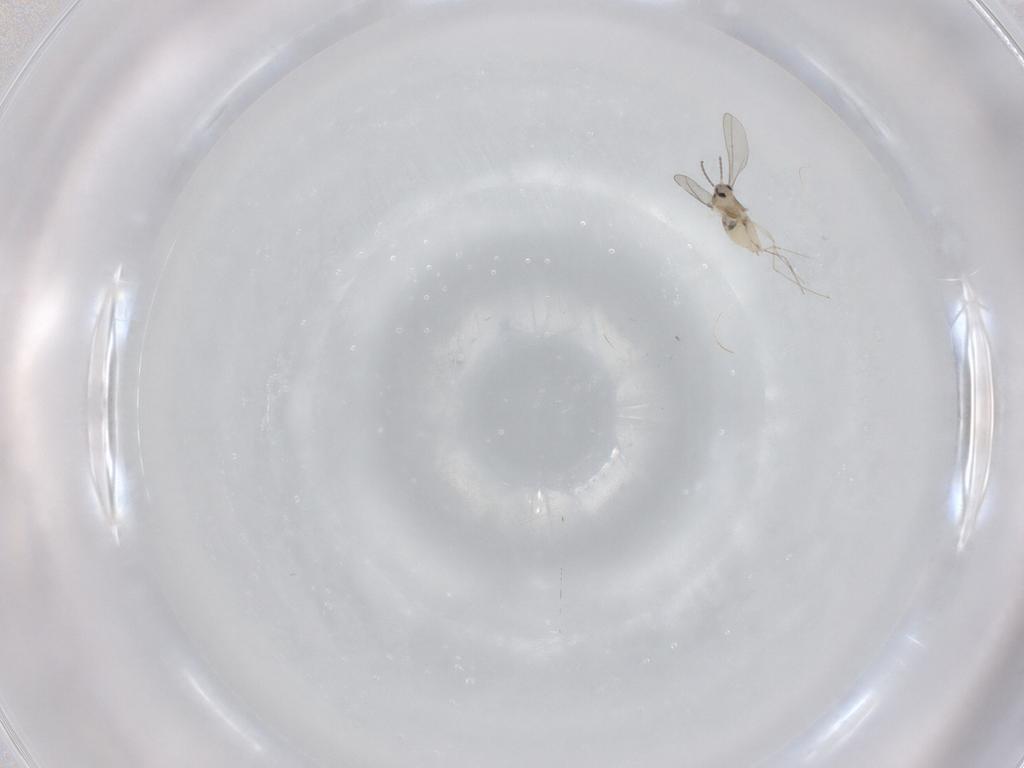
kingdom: Animalia
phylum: Arthropoda
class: Insecta
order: Diptera
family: Cecidomyiidae
